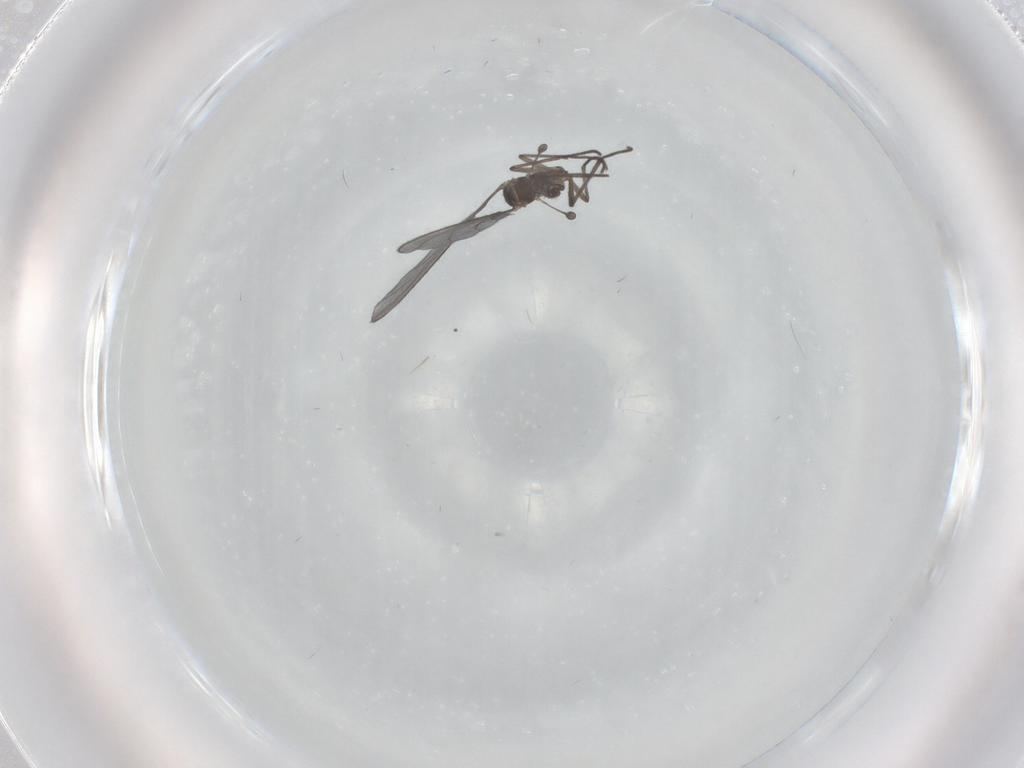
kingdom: Animalia
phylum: Arthropoda
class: Insecta
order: Diptera
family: Sciaridae
